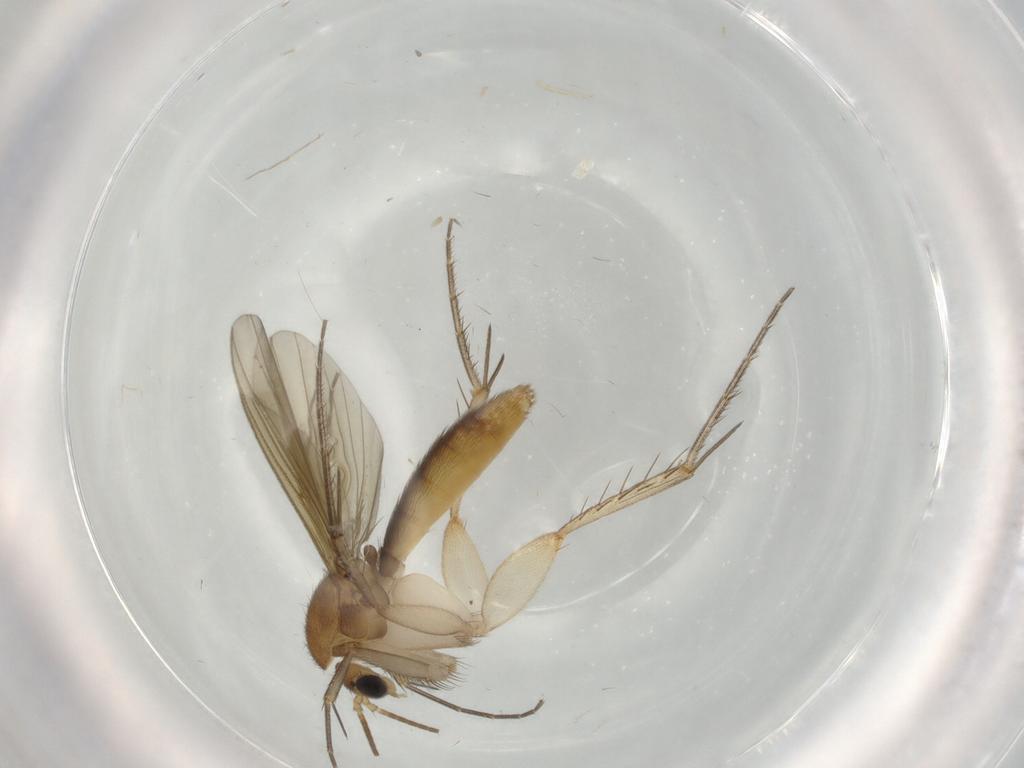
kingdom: Animalia
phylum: Arthropoda
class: Insecta
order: Diptera
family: Mycetophilidae
